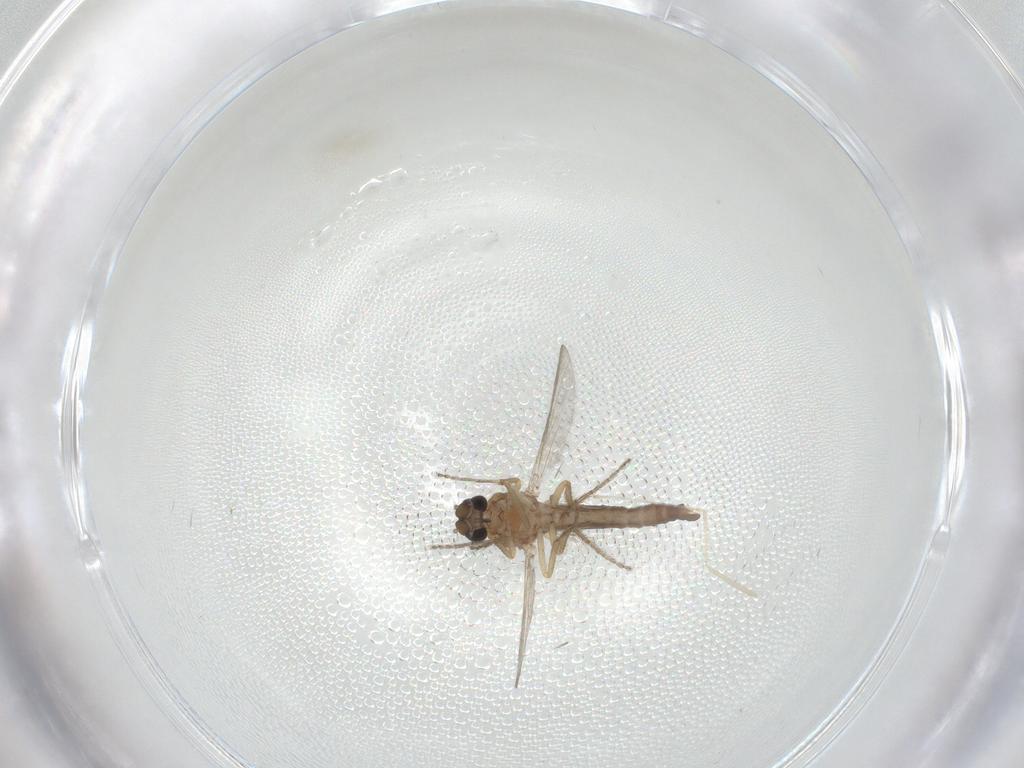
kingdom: Animalia
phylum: Arthropoda
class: Insecta
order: Diptera
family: Ceratopogonidae
